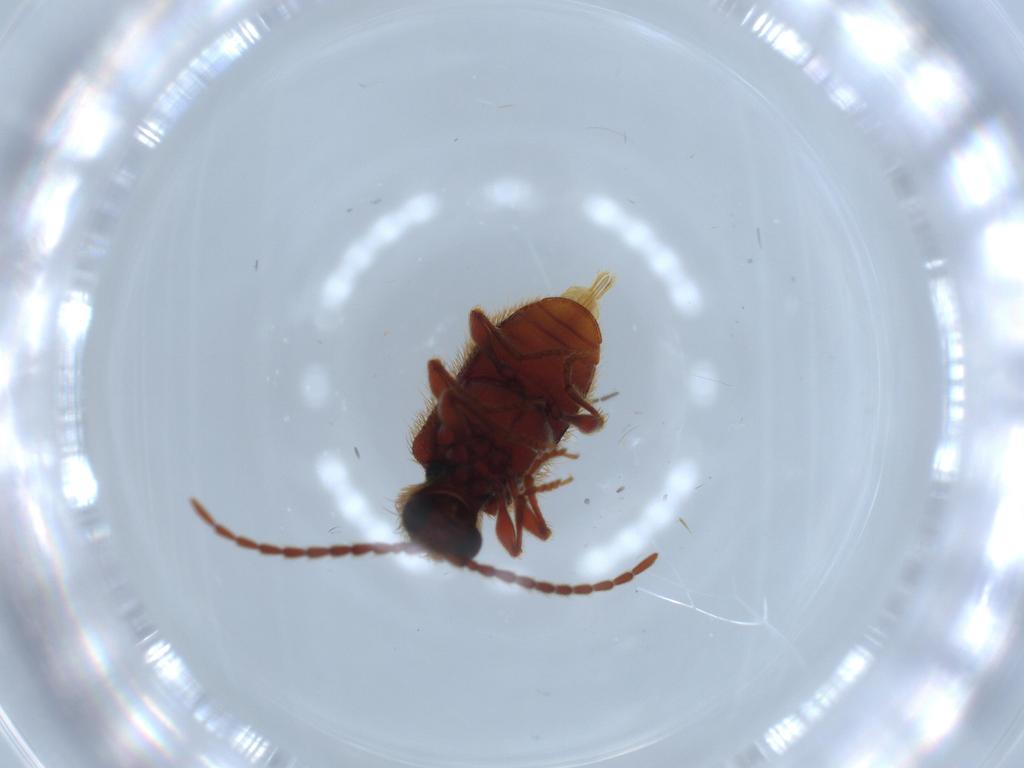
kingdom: Animalia
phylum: Arthropoda
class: Insecta
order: Coleoptera
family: Ptinidae
